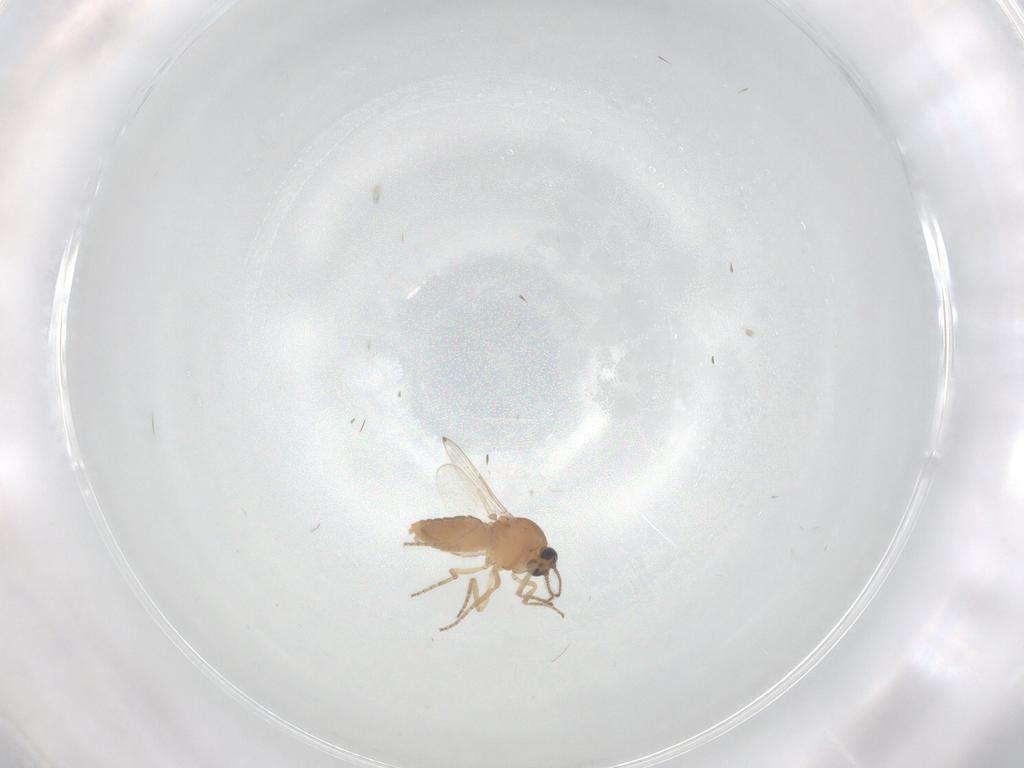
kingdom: Animalia
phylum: Arthropoda
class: Insecta
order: Diptera
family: Ceratopogonidae
